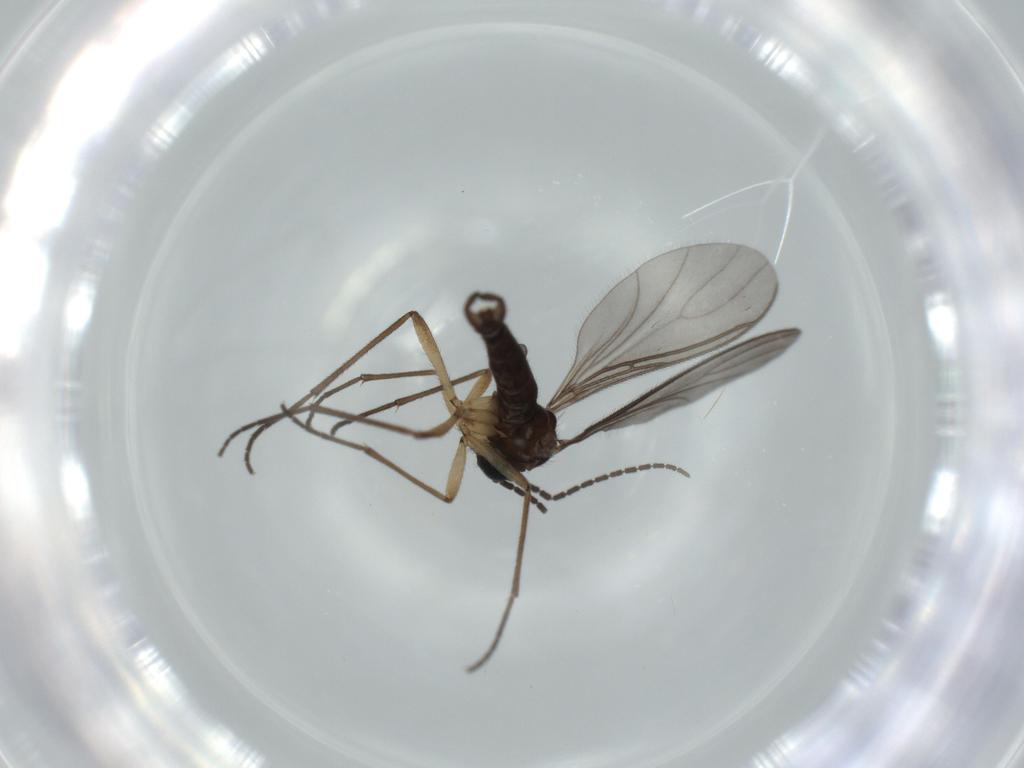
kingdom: Animalia
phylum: Arthropoda
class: Insecta
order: Diptera
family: Sciaridae
